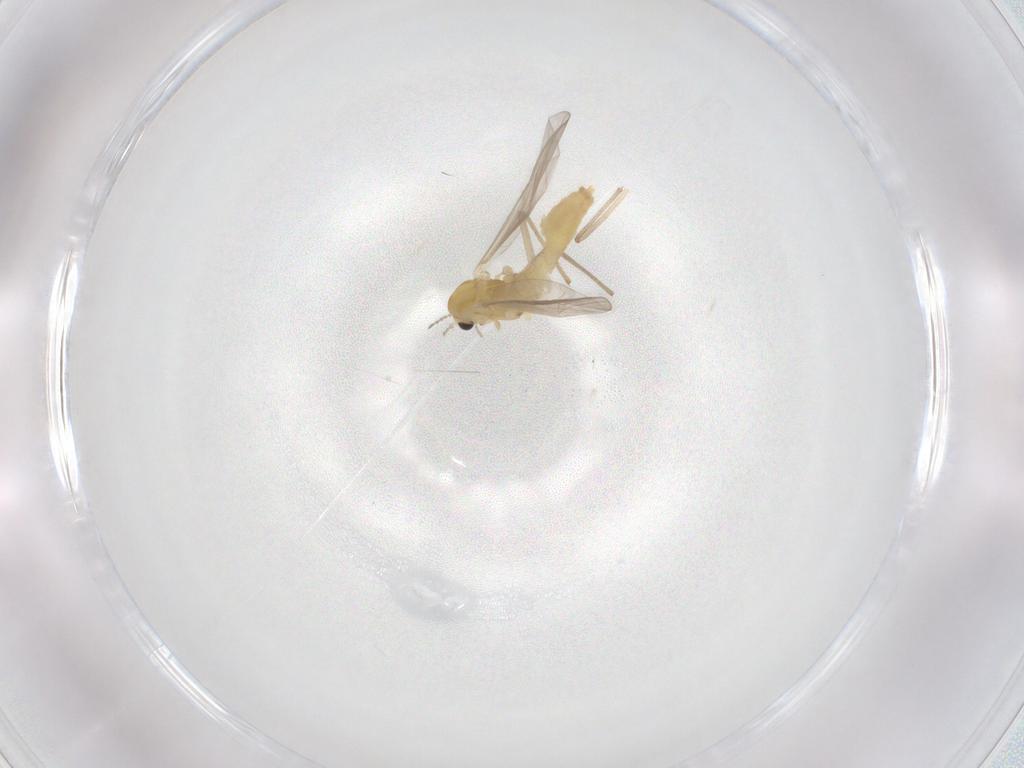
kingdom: Animalia
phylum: Arthropoda
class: Insecta
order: Diptera
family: Chironomidae
